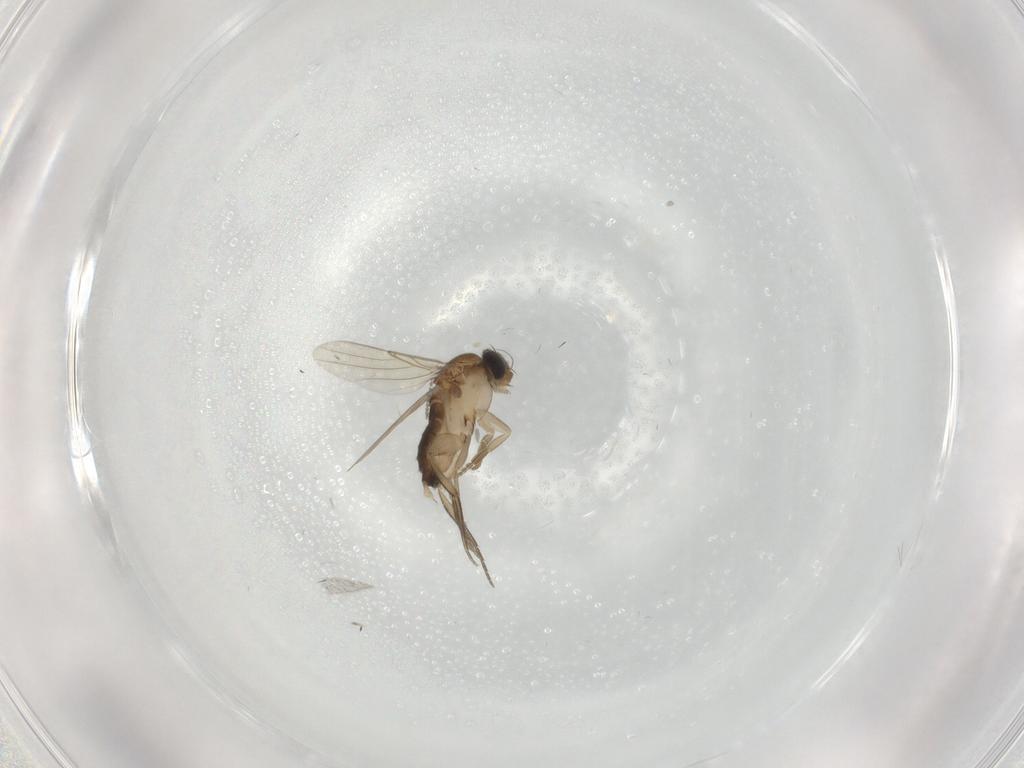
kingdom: Animalia
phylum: Arthropoda
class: Insecta
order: Diptera
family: Phoridae
